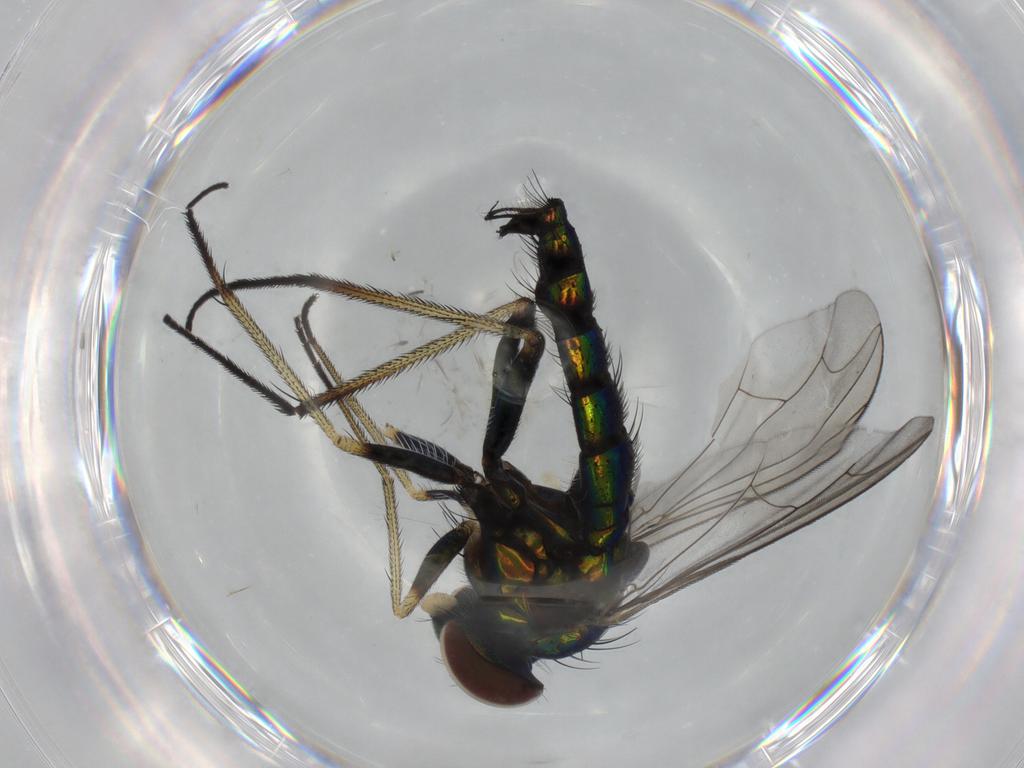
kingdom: Animalia
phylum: Arthropoda
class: Insecta
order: Diptera
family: Dolichopodidae
